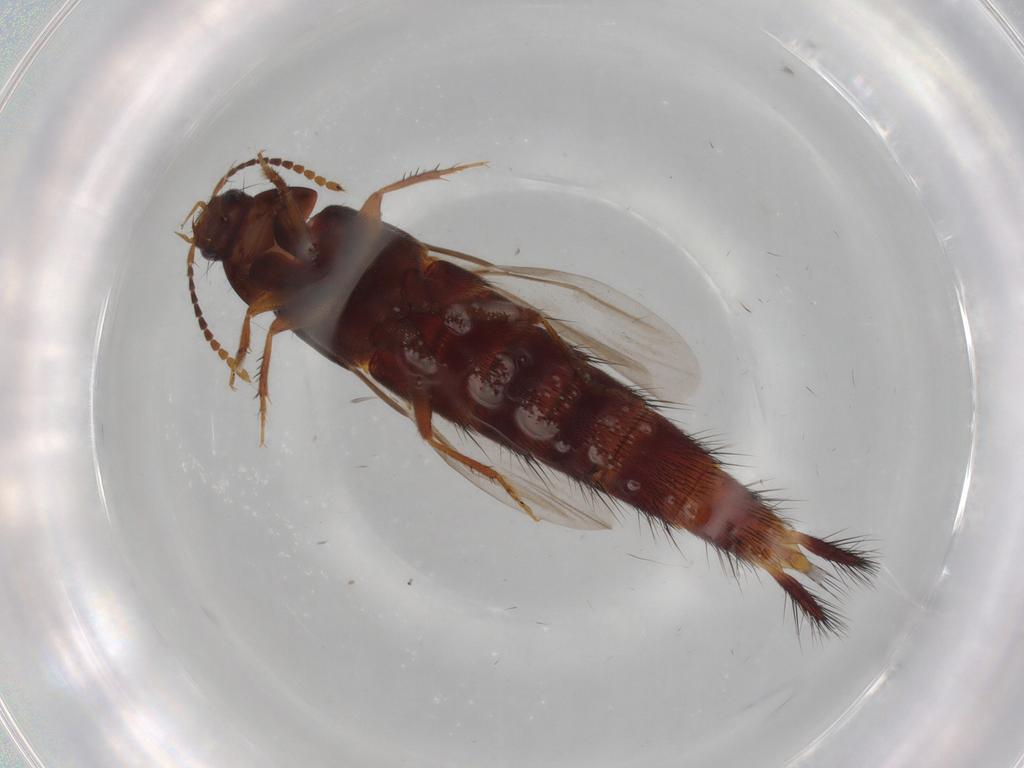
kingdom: Animalia
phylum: Arthropoda
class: Insecta
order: Coleoptera
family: Staphylinidae
